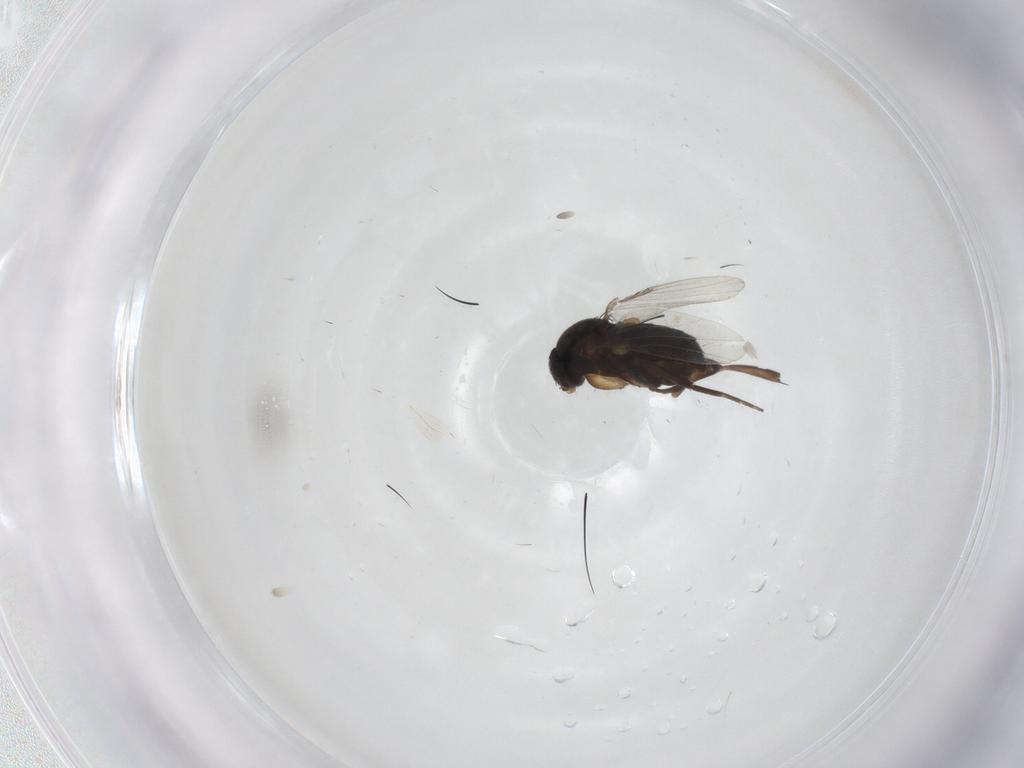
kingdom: Animalia
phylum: Arthropoda
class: Insecta
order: Diptera
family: Phoridae
